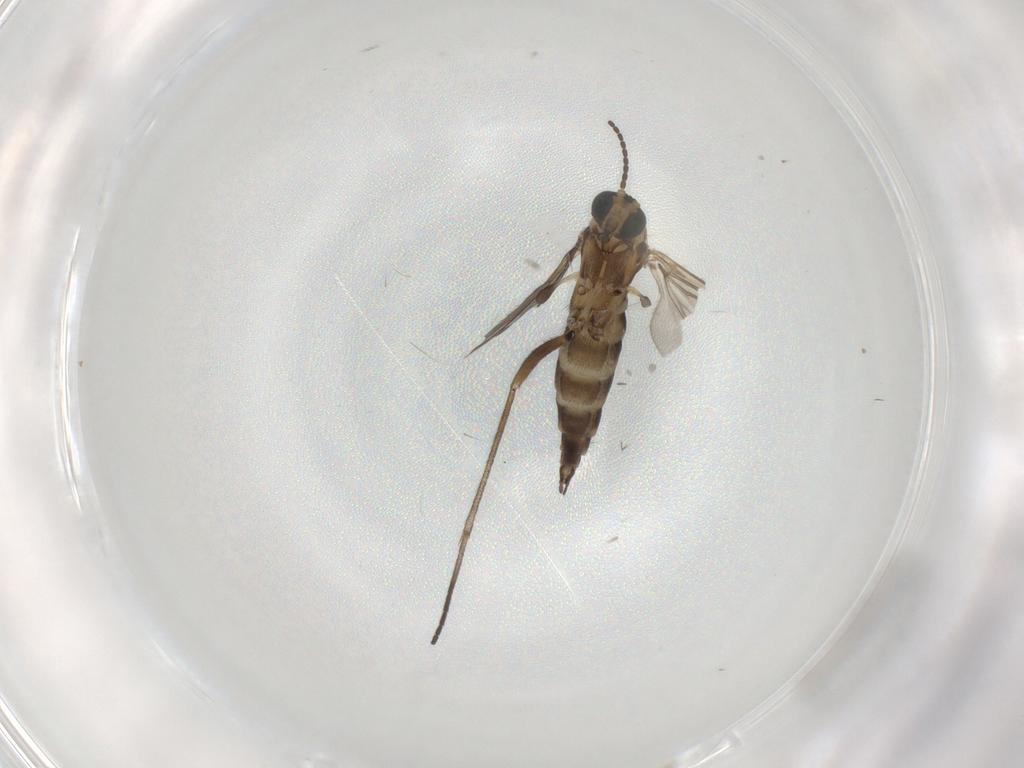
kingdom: Animalia
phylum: Arthropoda
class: Insecta
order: Diptera
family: Sciaridae
